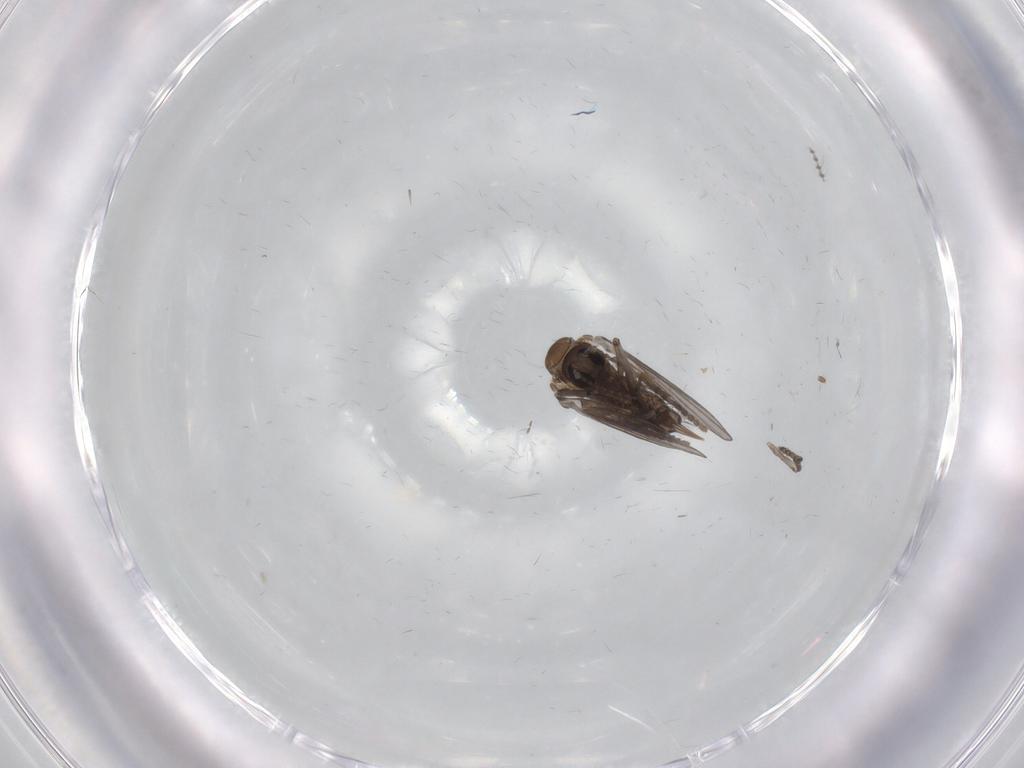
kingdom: Animalia
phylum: Arthropoda
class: Insecta
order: Diptera
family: Psychodidae
